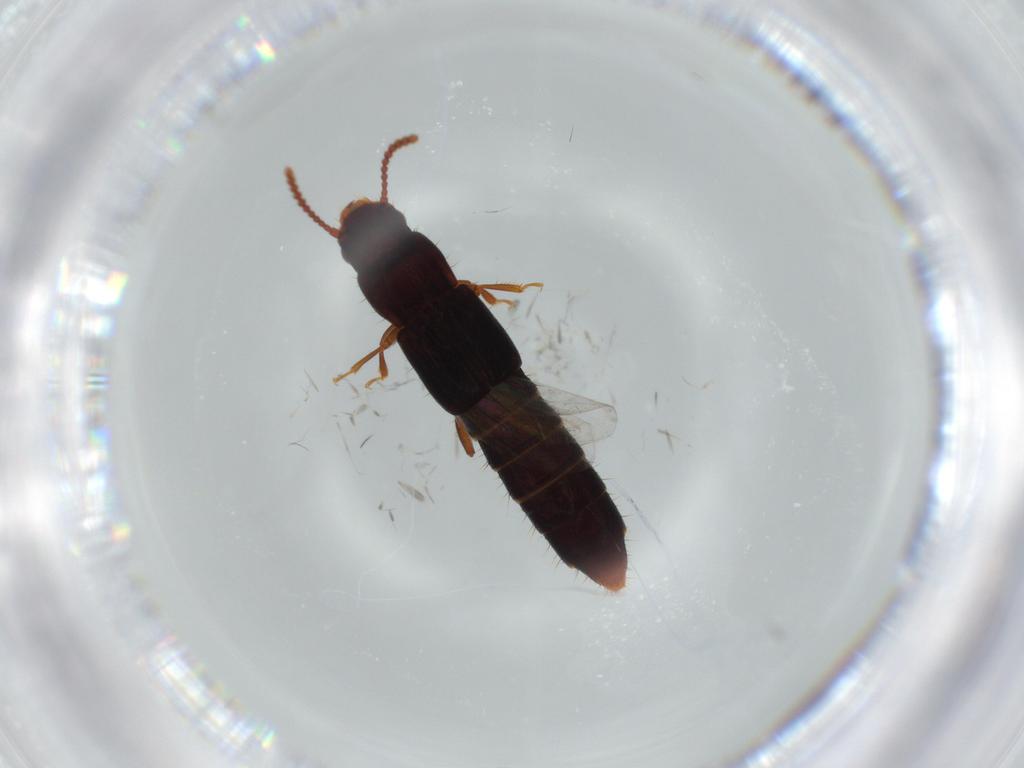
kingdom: Animalia
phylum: Arthropoda
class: Insecta
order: Coleoptera
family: Staphylinidae
